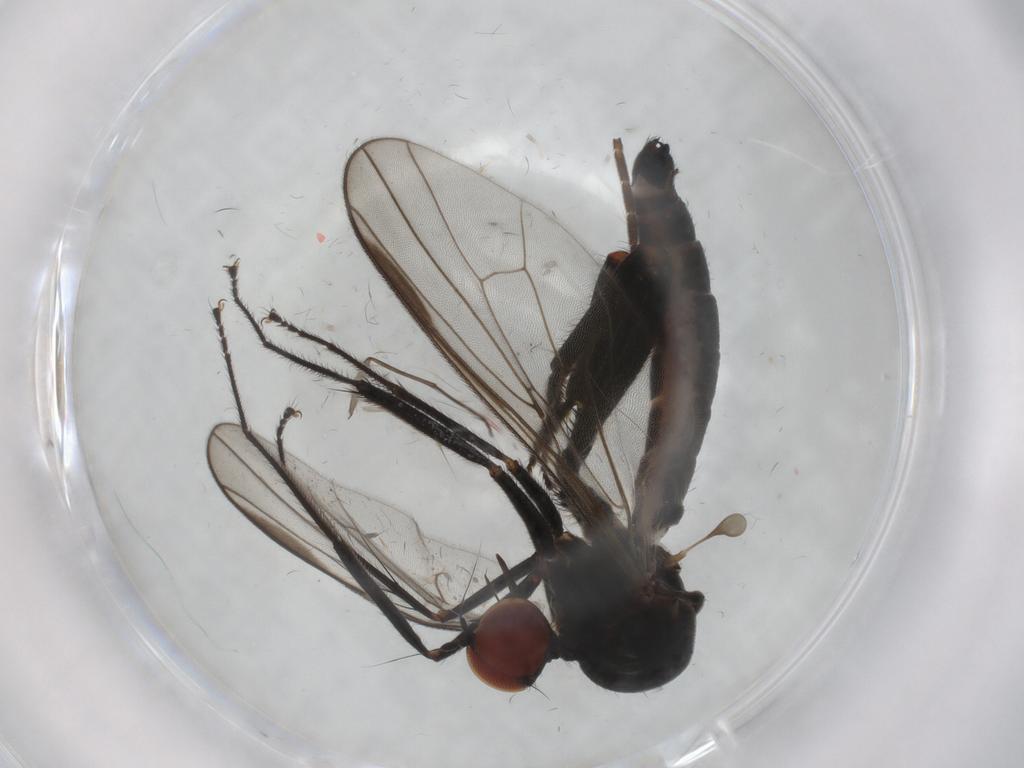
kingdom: Animalia
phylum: Arthropoda
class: Insecta
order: Diptera
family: Hybotidae
